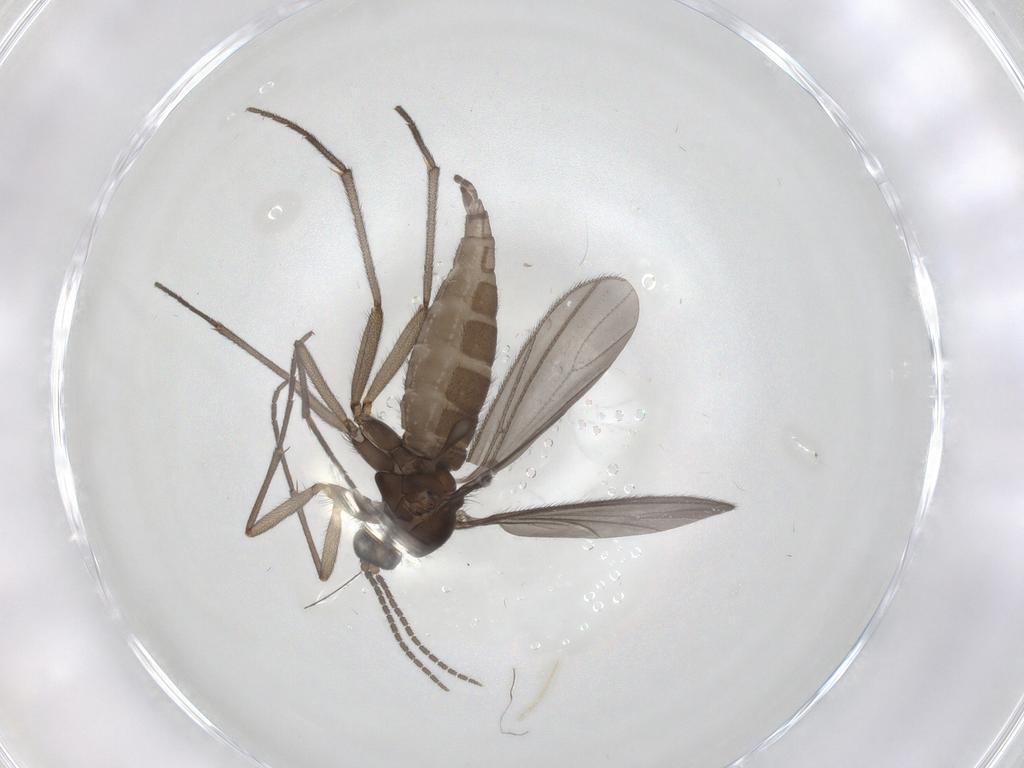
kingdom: Animalia
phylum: Arthropoda
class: Insecta
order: Diptera
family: Sciaridae
